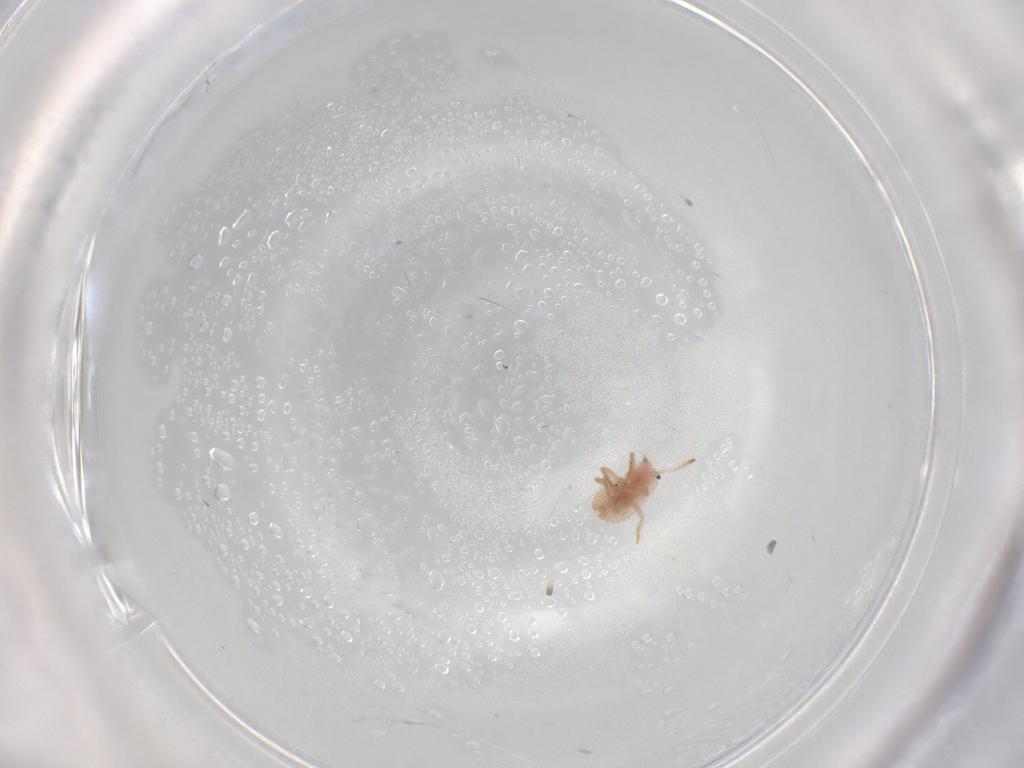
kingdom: Animalia
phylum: Arthropoda
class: Insecta
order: Hemiptera
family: Coccoidea_incertae_sedis
